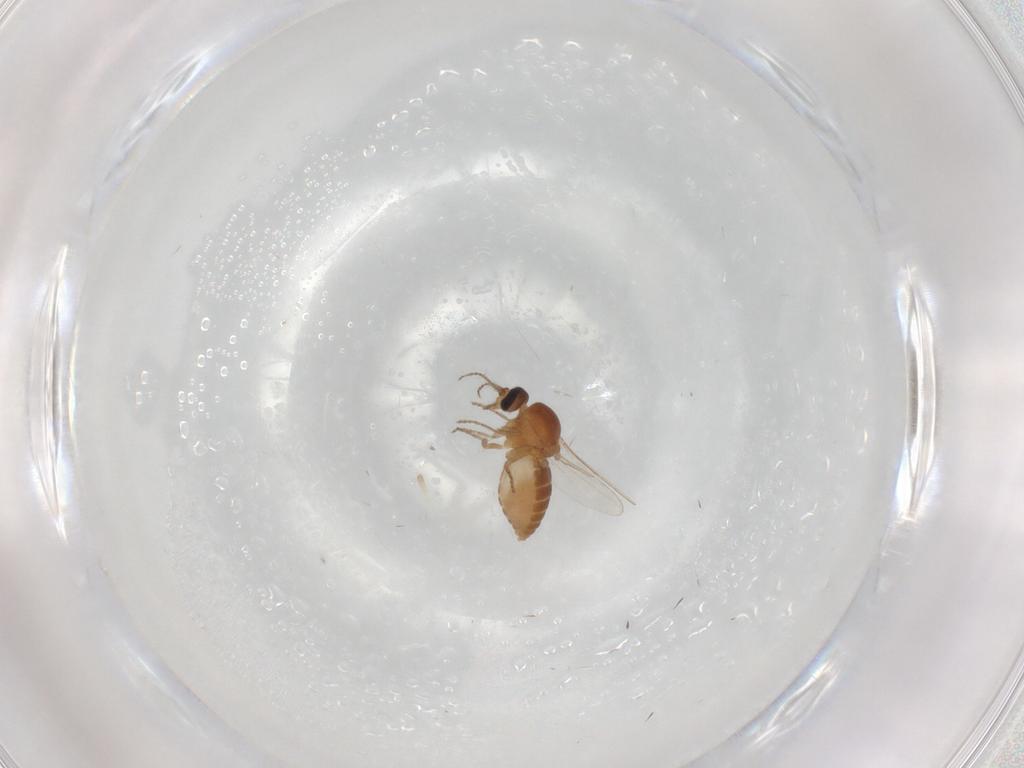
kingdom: Animalia
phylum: Arthropoda
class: Insecta
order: Diptera
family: Ceratopogonidae
